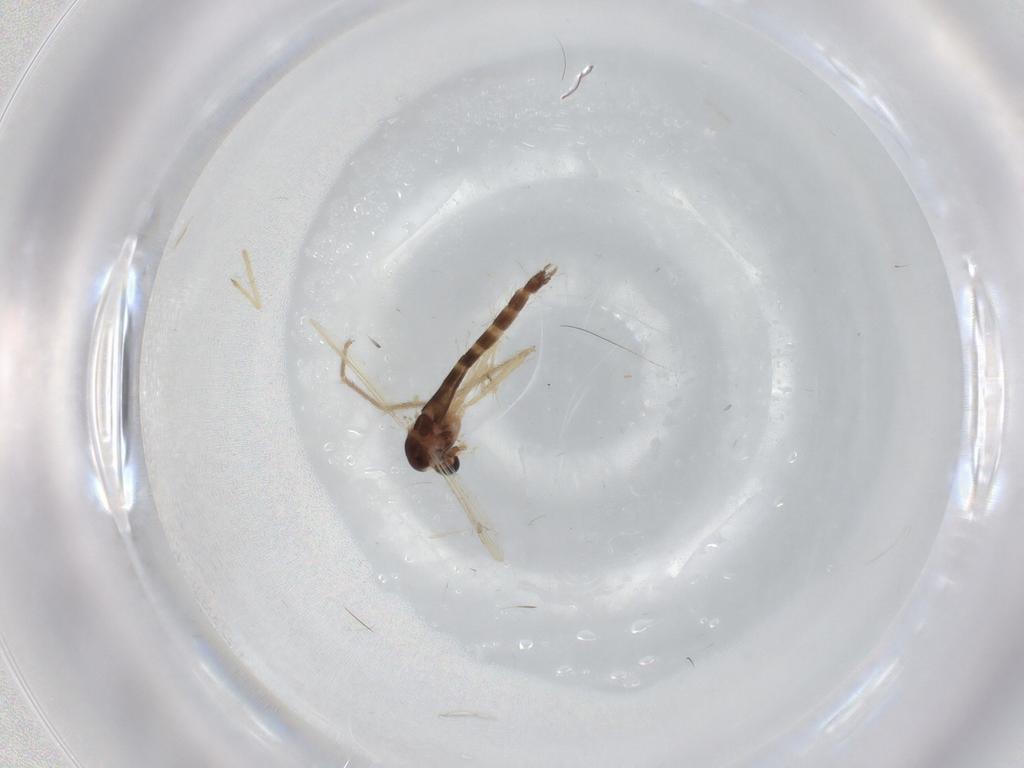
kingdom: Animalia
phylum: Arthropoda
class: Insecta
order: Diptera
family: Chironomidae
